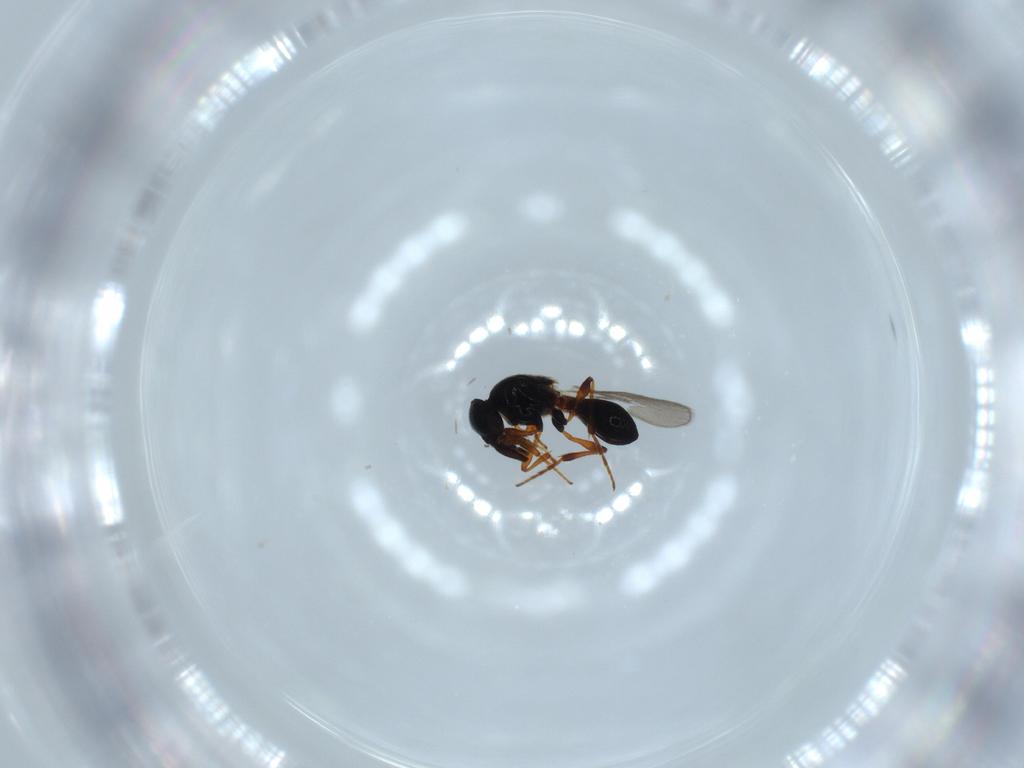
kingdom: Animalia
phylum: Arthropoda
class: Insecta
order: Hymenoptera
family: Platygastridae
